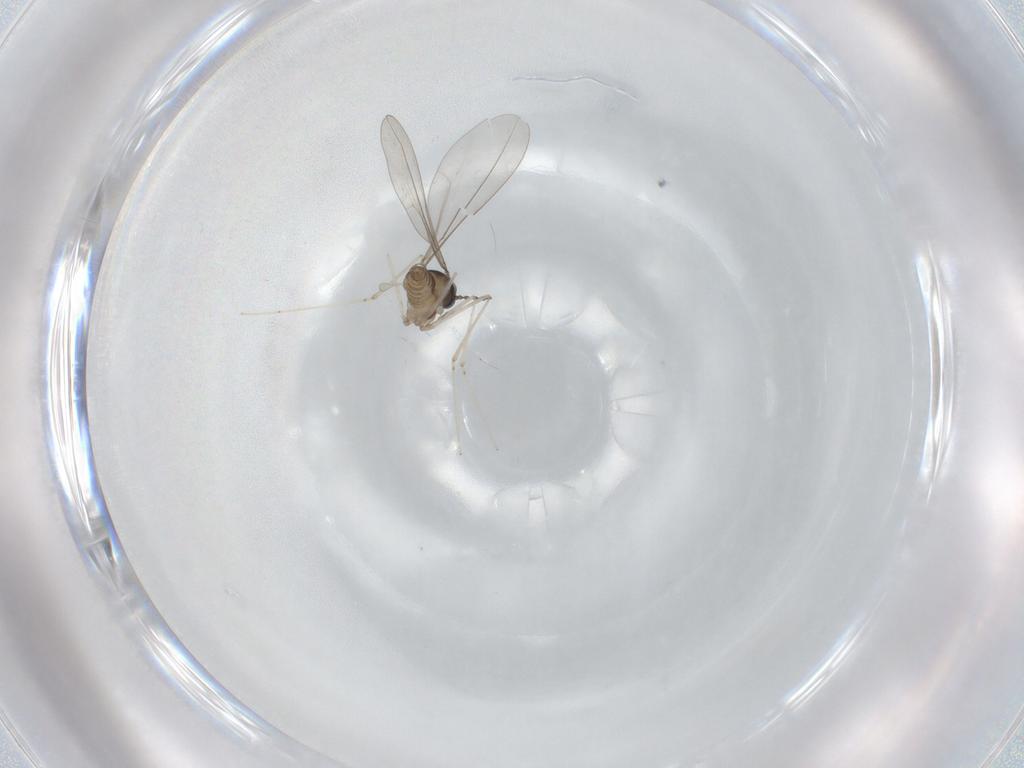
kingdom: Animalia
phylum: Arthropoda
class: Insecta
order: Diptera
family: Cecidomyiidae
